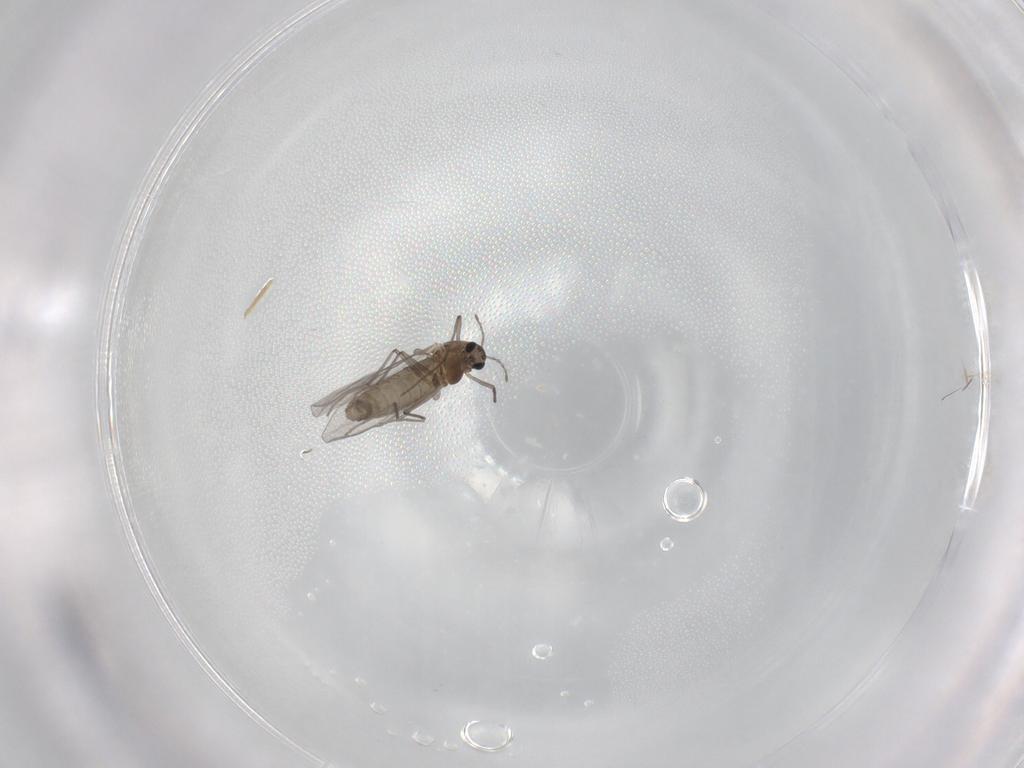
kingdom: Animalia
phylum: Arthropoda
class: Insecta
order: Diptera
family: Chironomidae
